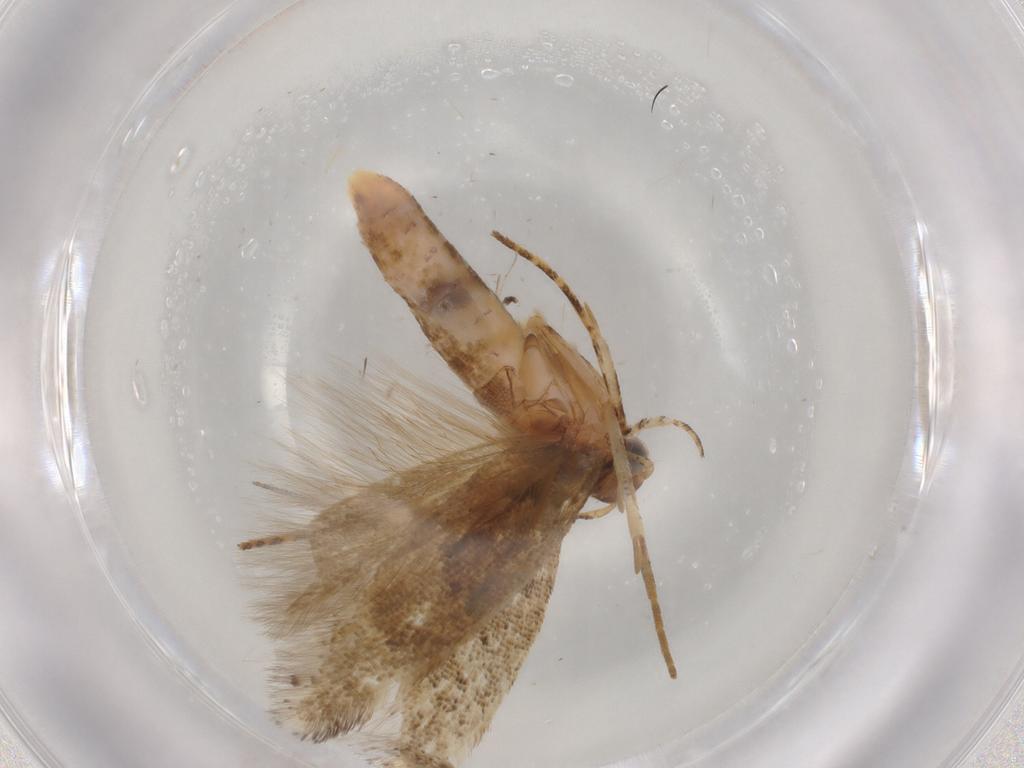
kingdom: Animalia
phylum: Arthropoda
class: Insecta
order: Lepidoptera
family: Gelechiidae
